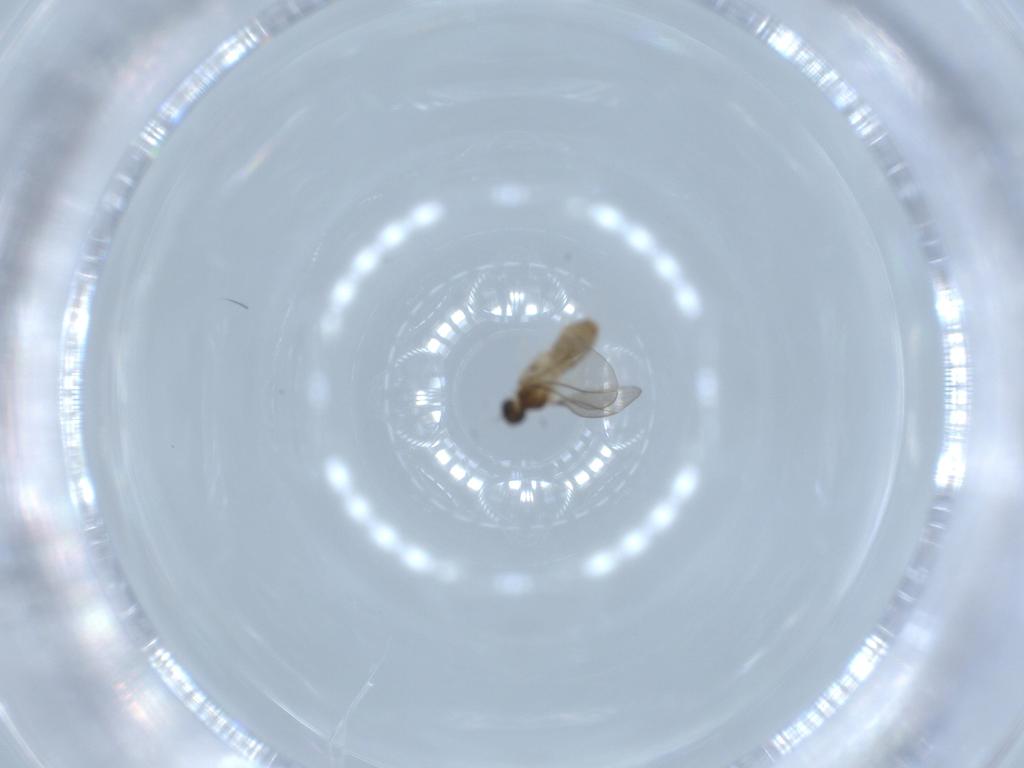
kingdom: Animalia
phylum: Arthropoda
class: Insecta
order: Diptera
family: Cecidomyiidae
